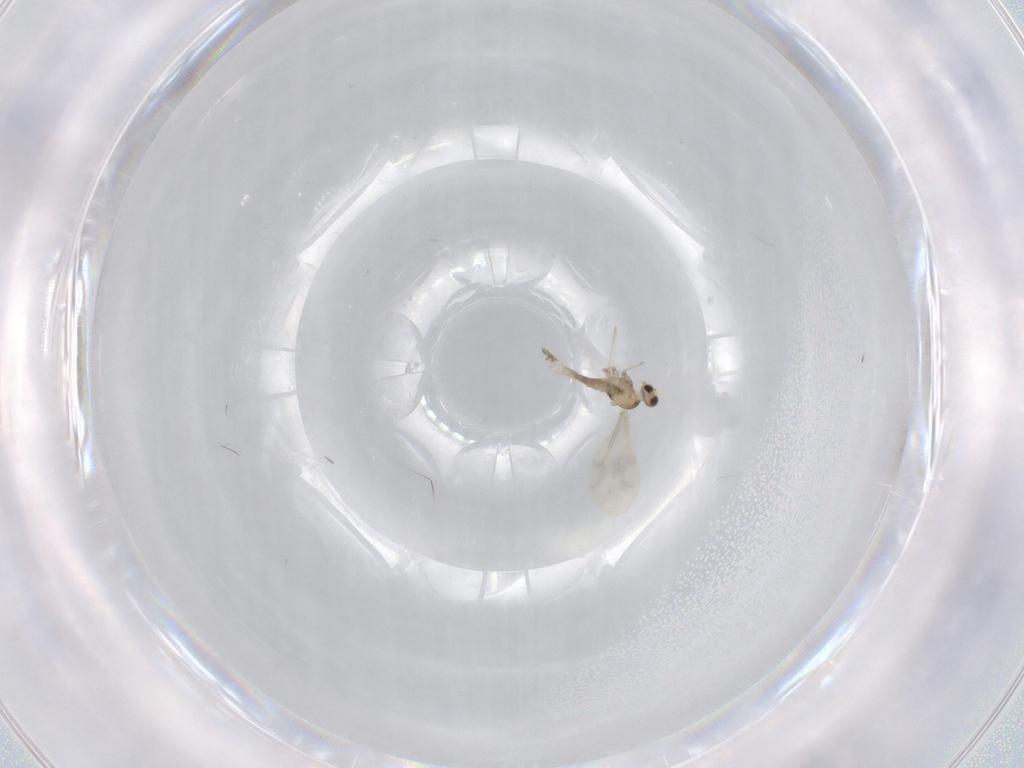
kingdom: Animalia
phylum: Arthropoda
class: Insecta
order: Diptera
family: Cecidomyiidae
